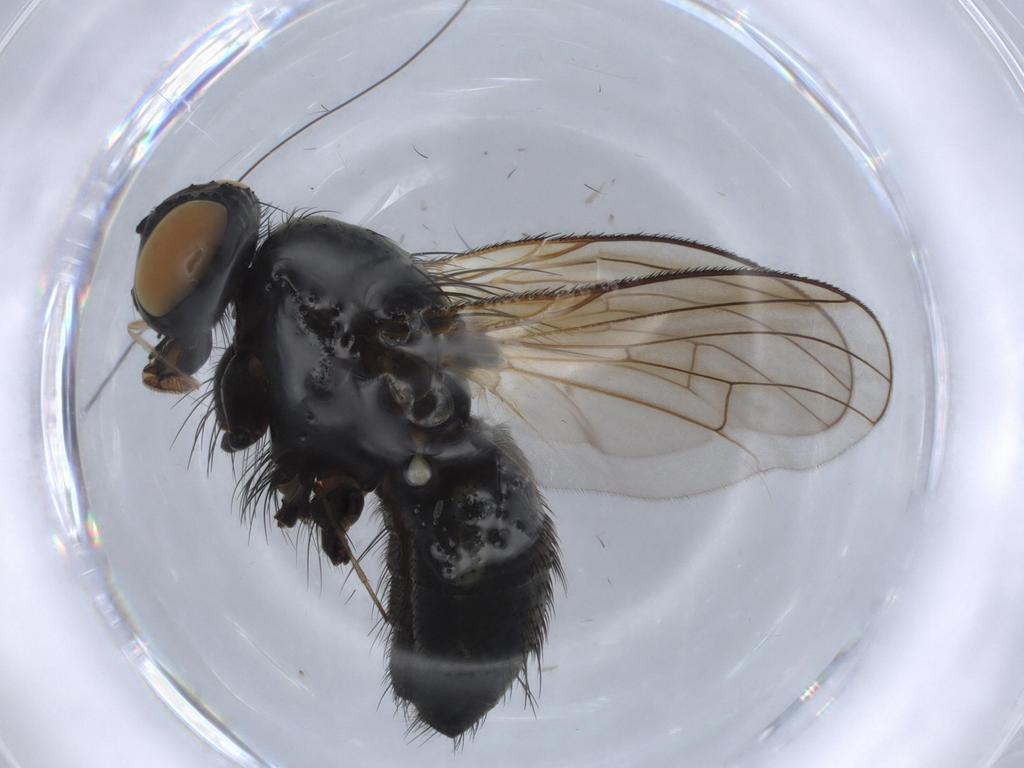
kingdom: Animalia
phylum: Arthropoda
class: Insecta
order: Diptera
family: Muscidae
